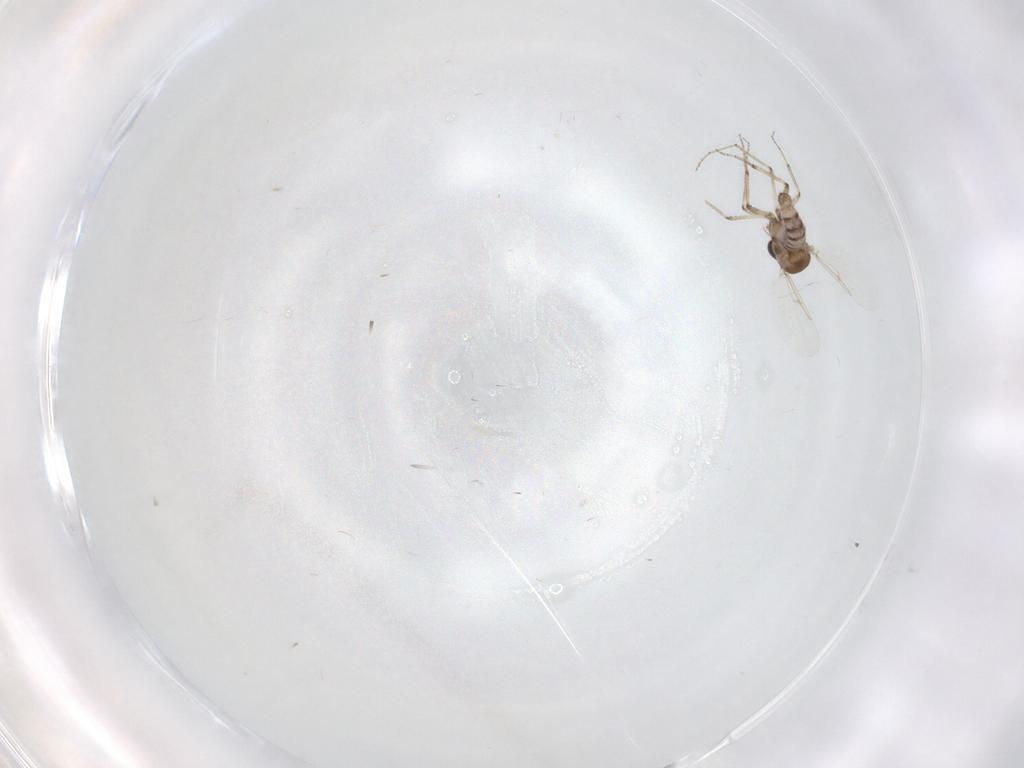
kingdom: Animalia
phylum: Arthropoda
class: Insecta
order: Diptera
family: Ceratopogonidae
